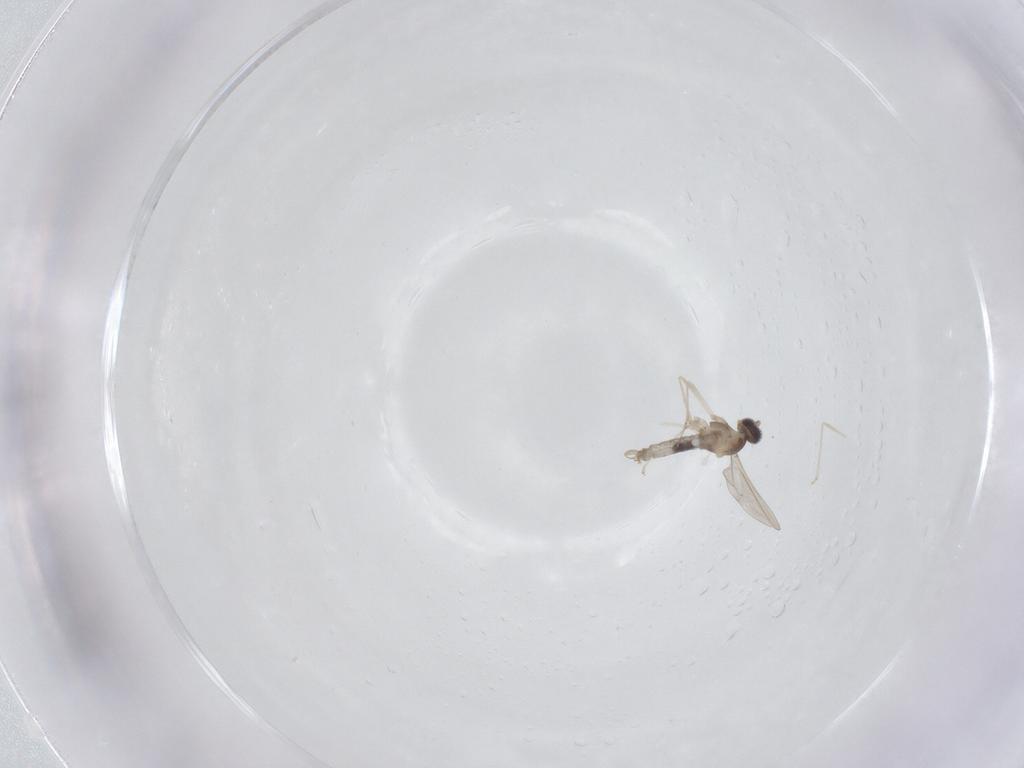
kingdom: Animalia
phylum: Arthropoda
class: Insecta
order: Diptera
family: Cecidomyiidae
